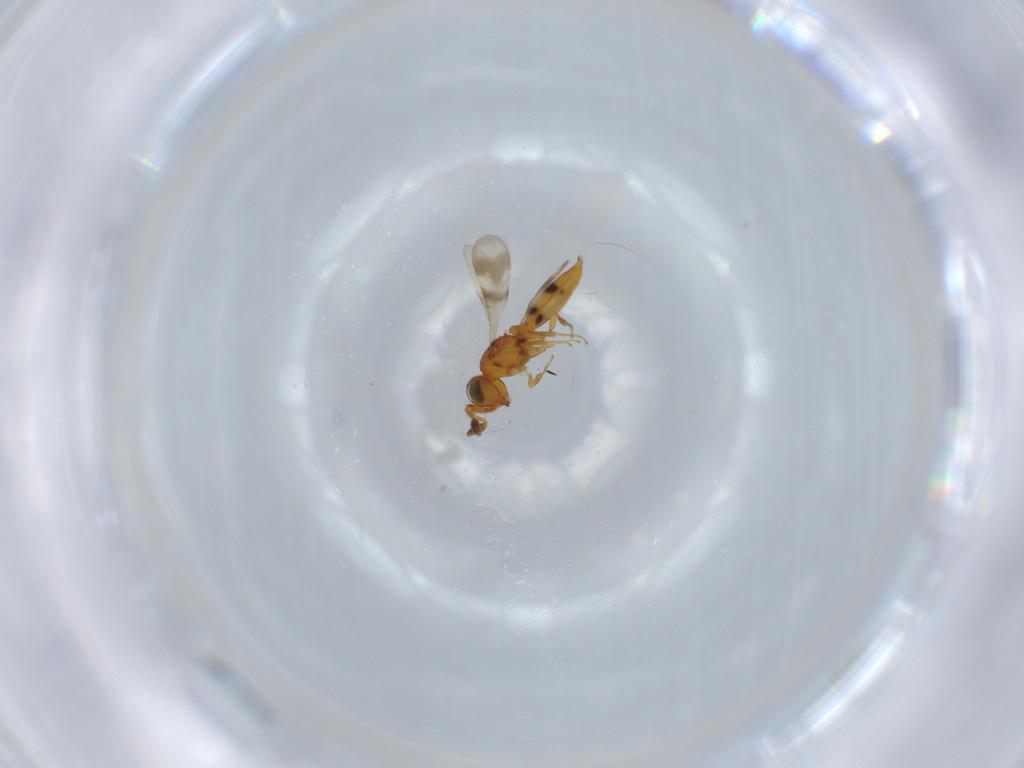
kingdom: Animalia
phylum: Arthropoda
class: Insecta
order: Hymenoptera
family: Scelionidae
